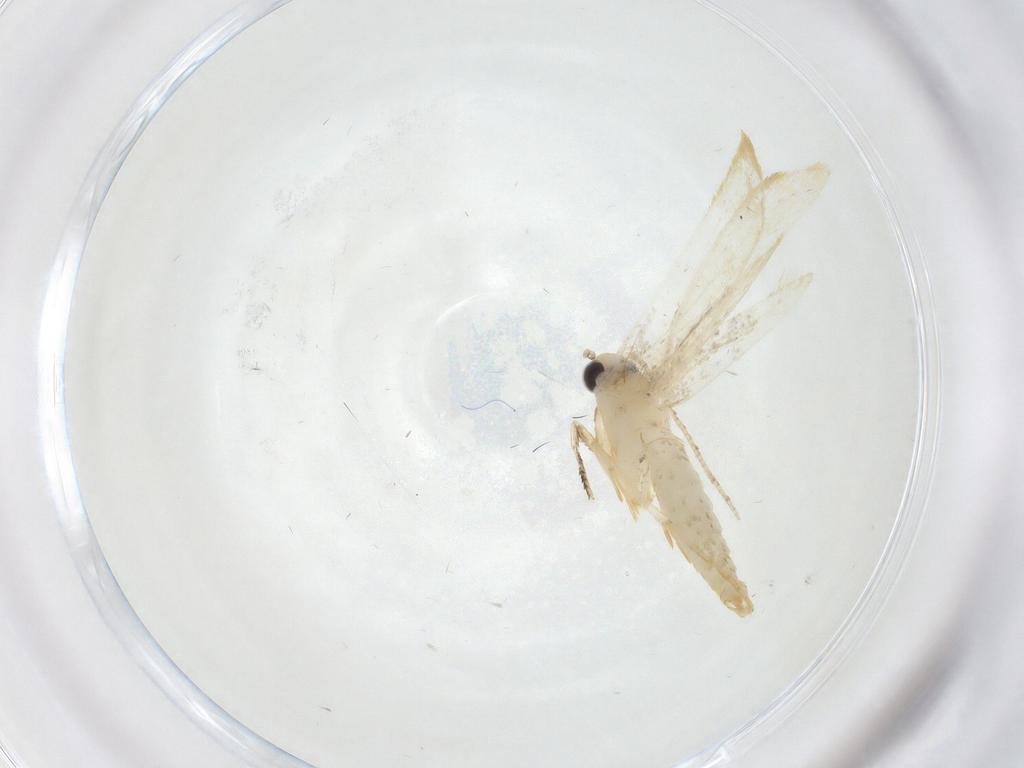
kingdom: Animalia
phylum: Arthropoda
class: Insecta
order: Lepidoptera
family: Tineidae
